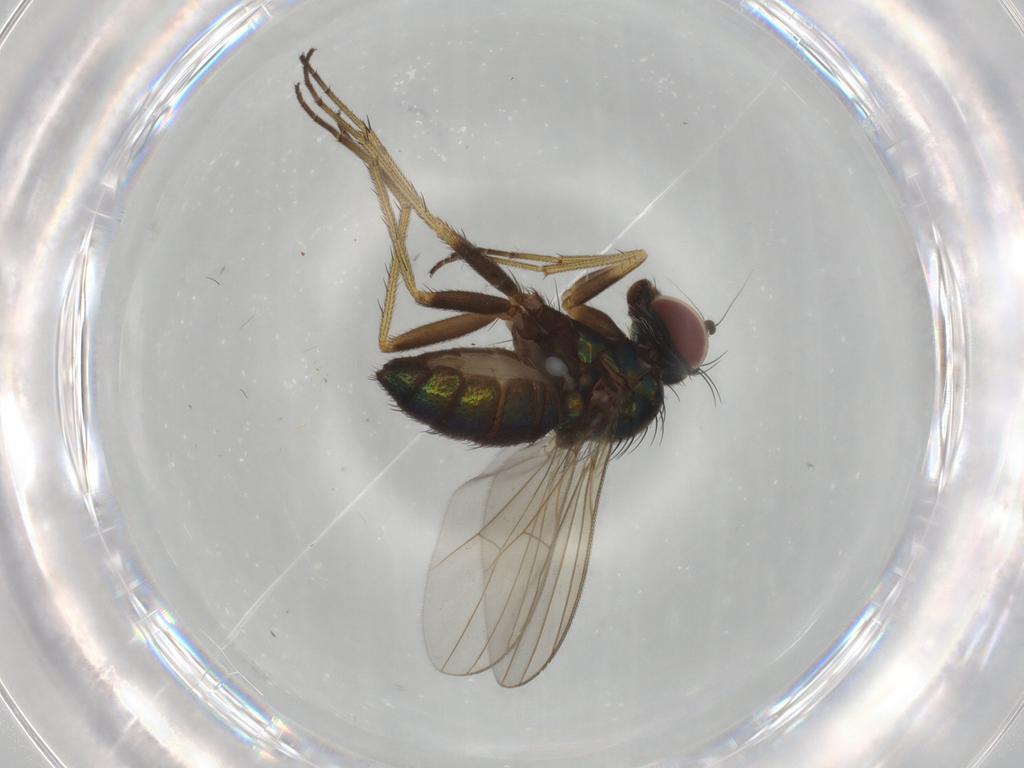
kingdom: Animalia
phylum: Arthropoda
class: Insecta
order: Diptera
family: Dolichopodidae
